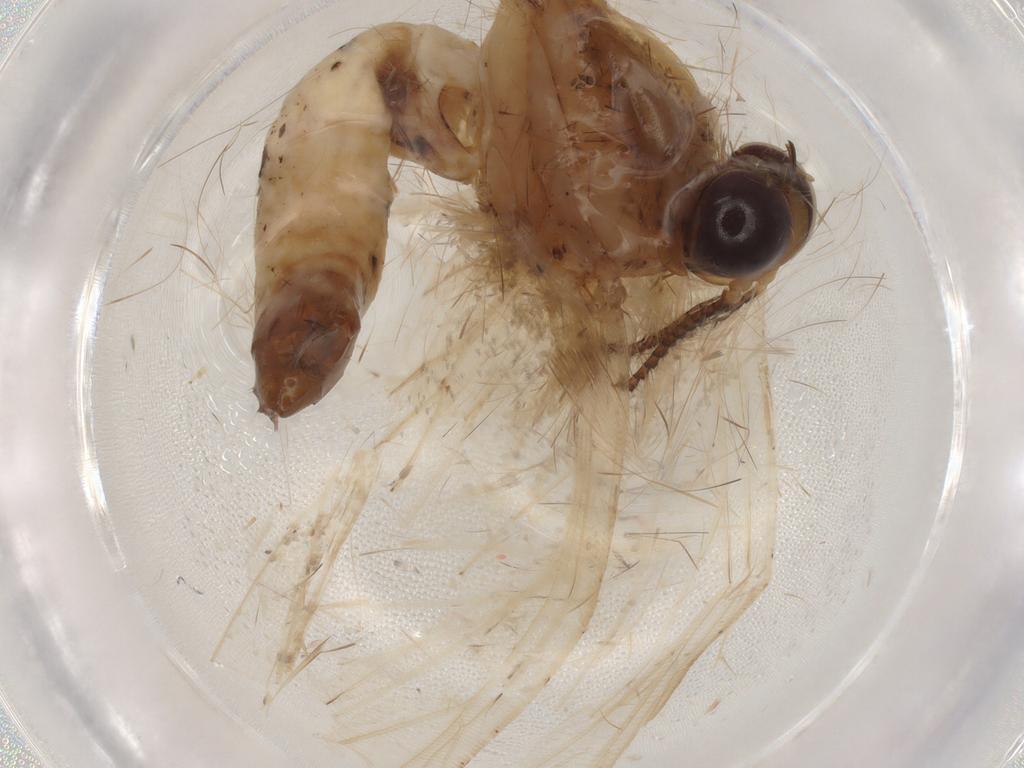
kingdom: Animalia
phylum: Arthropoda
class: Insecta
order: Lepidoptera
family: Geometridae
